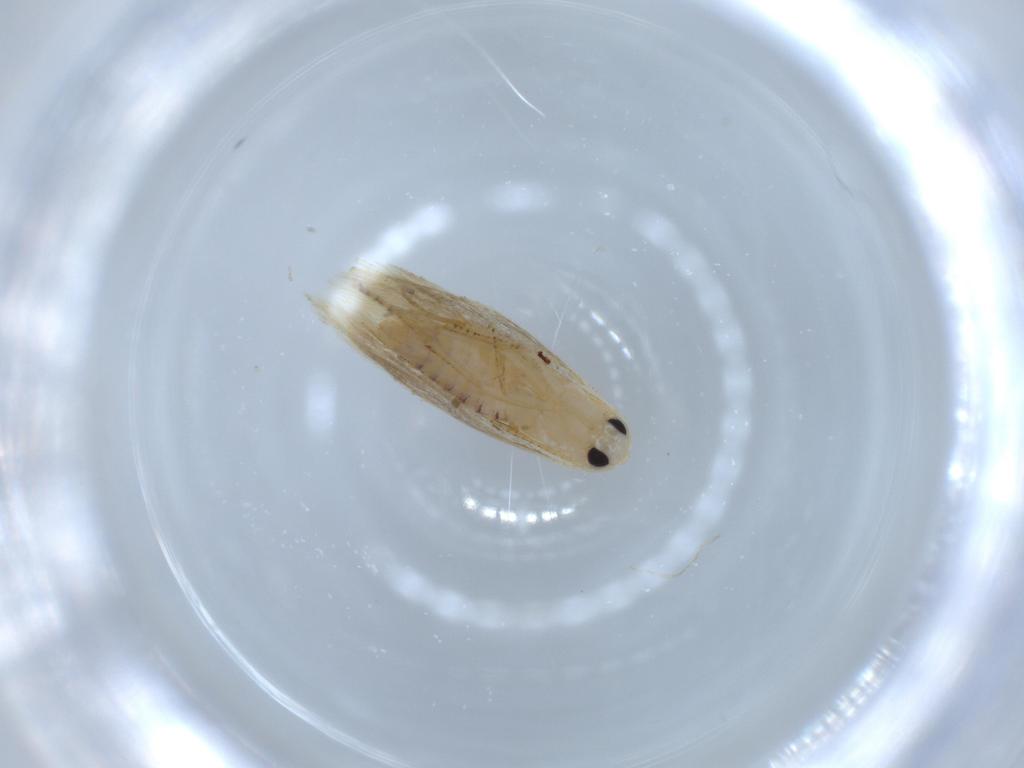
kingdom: Animalia
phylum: Arthropoda
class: Insecta
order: Lepidoptera
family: Bucculatricidae
